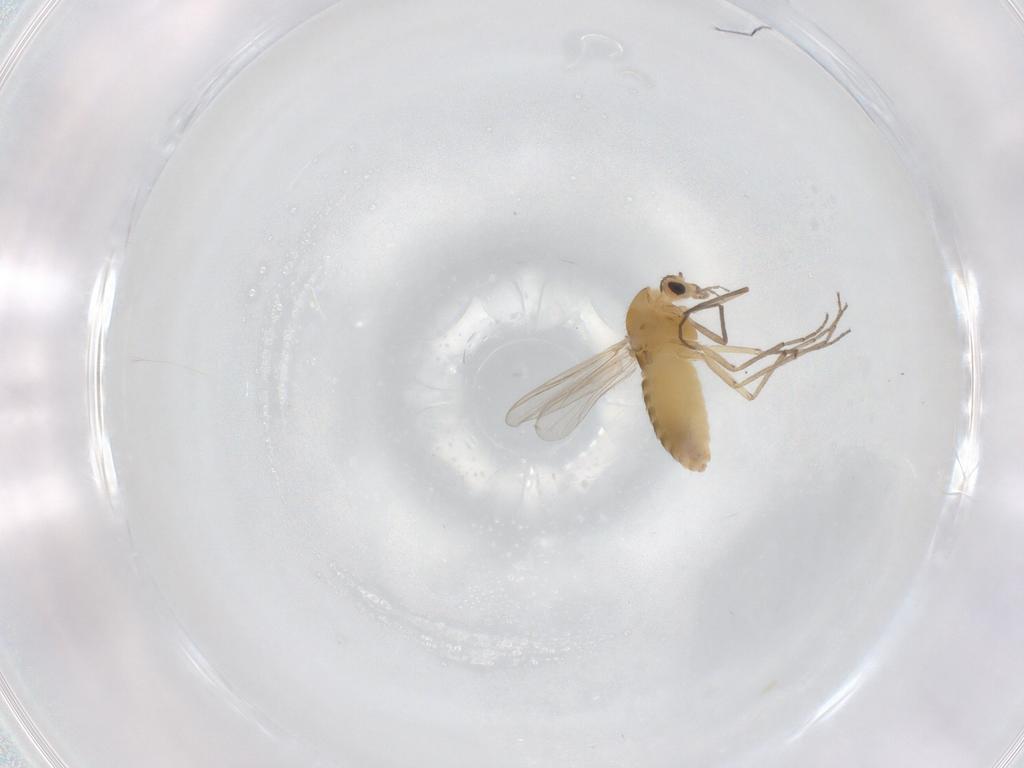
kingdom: Animalia
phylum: Arthropoda
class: Insecta
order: Diptera
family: Chironomidae
